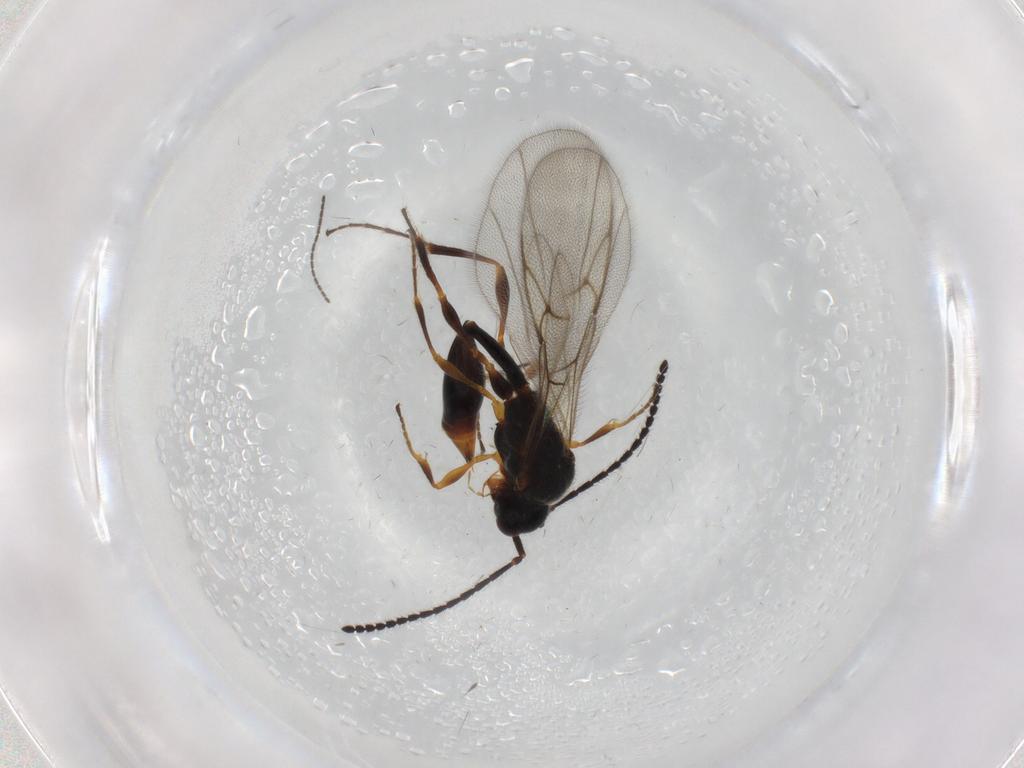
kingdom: Animalia
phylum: Arthropoda
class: Insecta
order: Hymenoptera
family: Diapriidae
